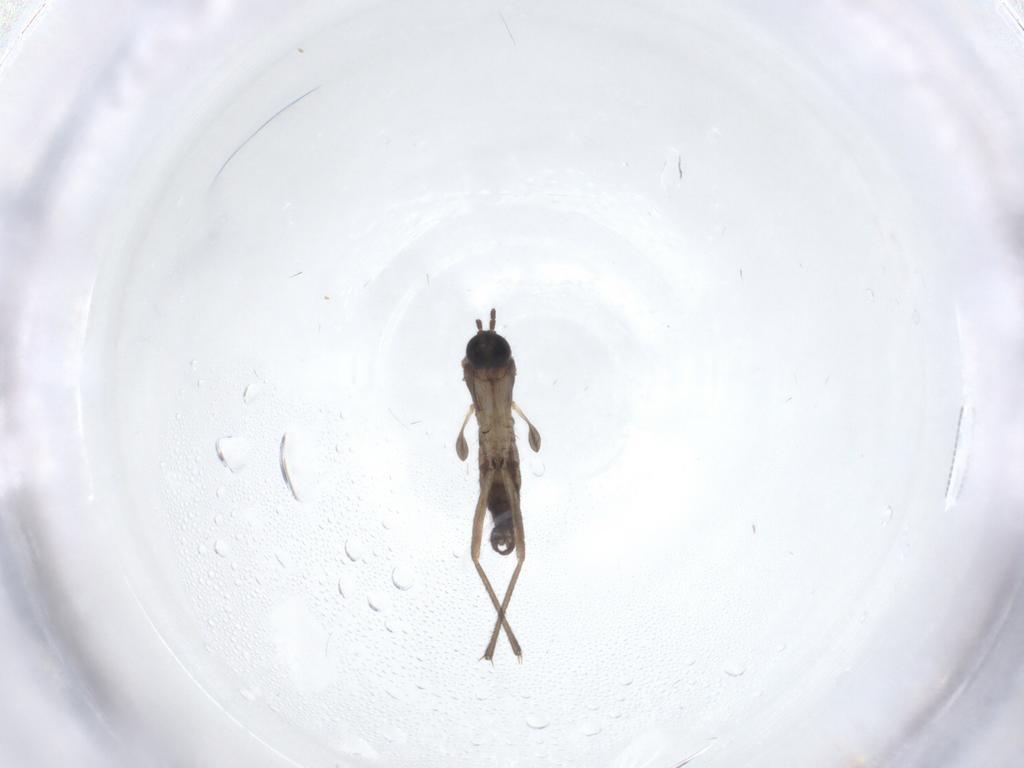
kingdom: Animalia
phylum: Arthropoda
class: Insecta
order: Diptera
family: Sciaridae
